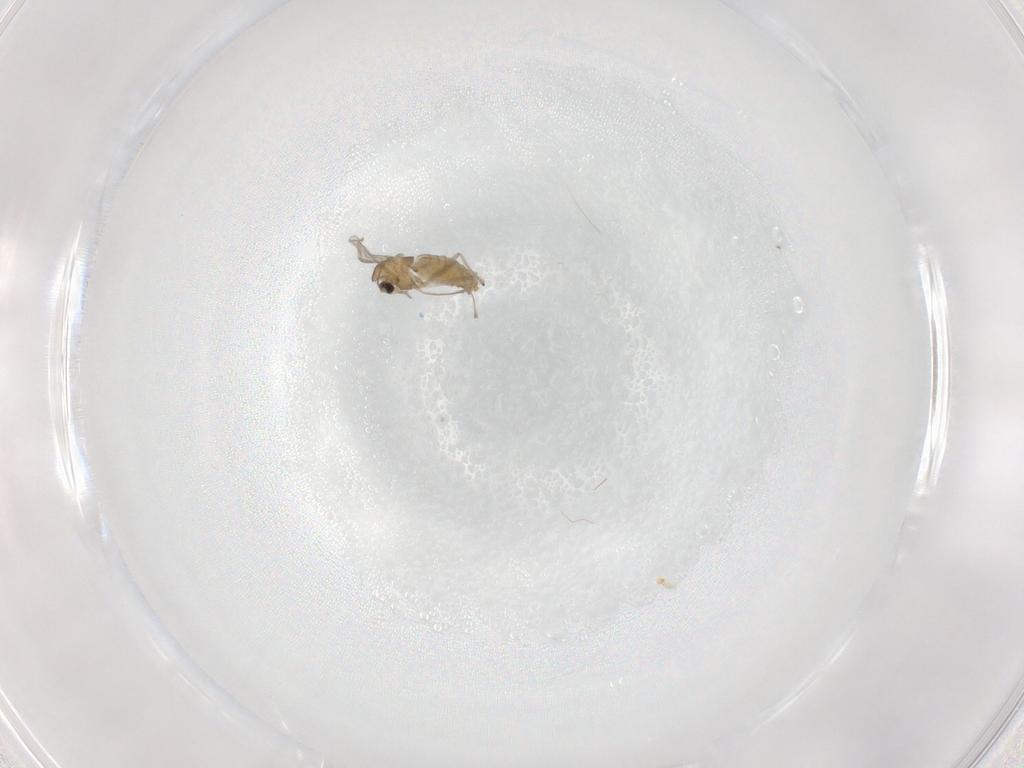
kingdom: Animalia
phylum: Arthropoda
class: Insecta
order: Diptera
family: Chironomidae
